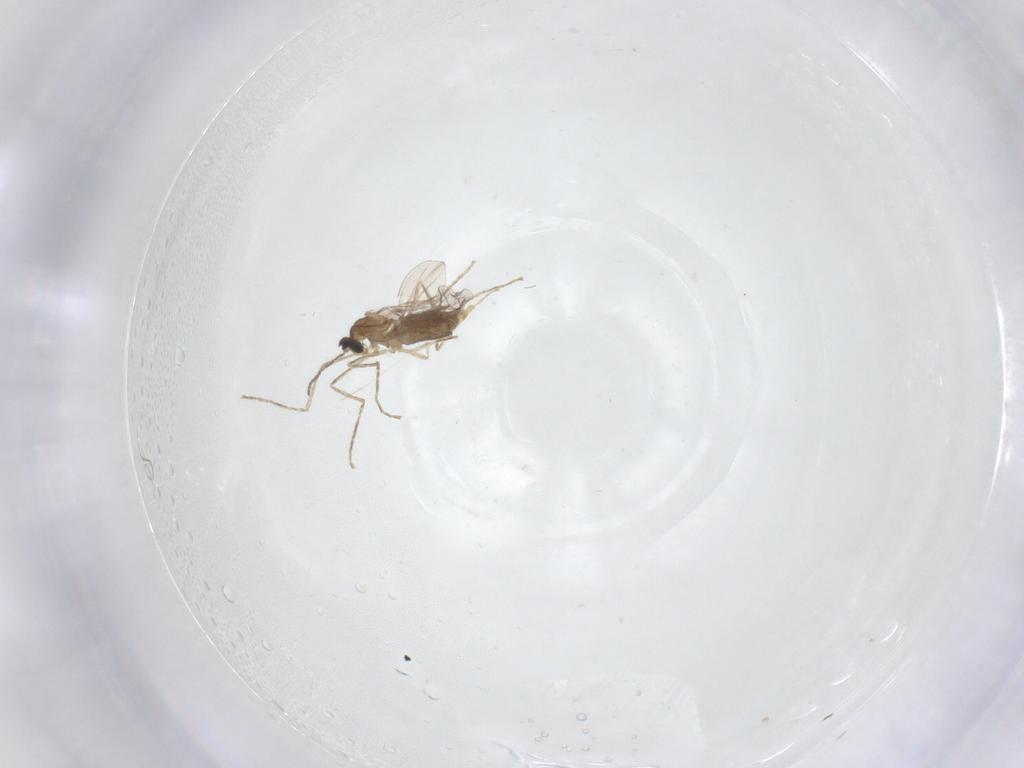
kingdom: Animalia
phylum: Arthropoda
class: Insecta
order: Diptera
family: Cecidomyiidae
